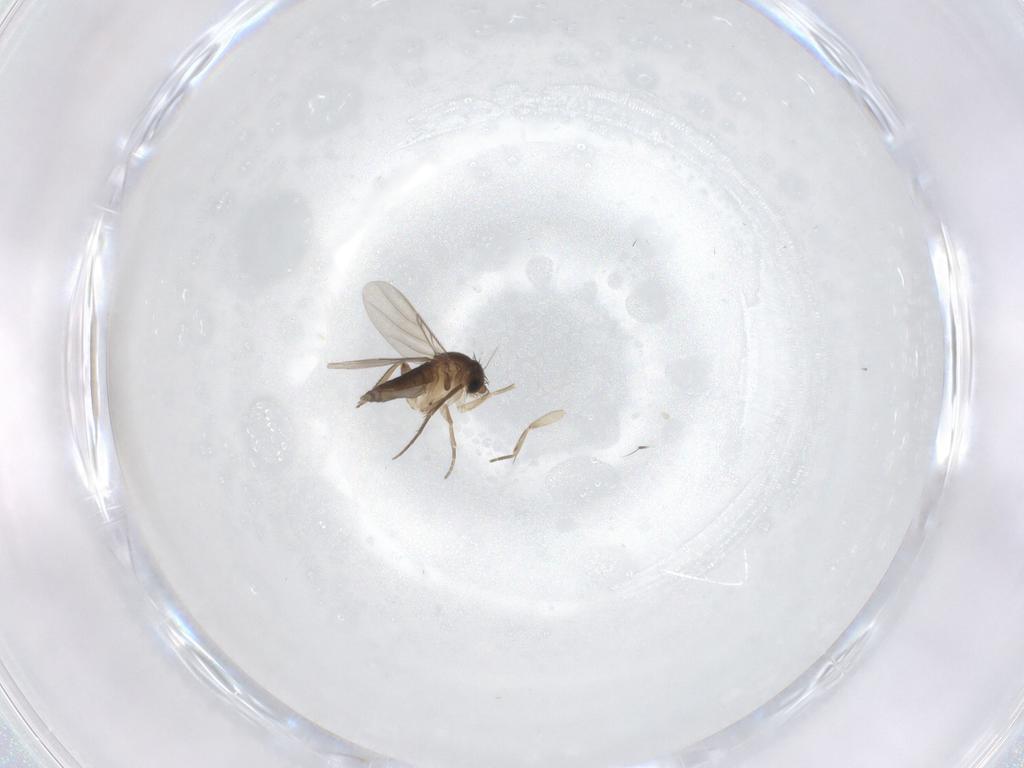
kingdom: Animalia
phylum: Arthropoda
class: Insecta
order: Diptera
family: Phoridae
